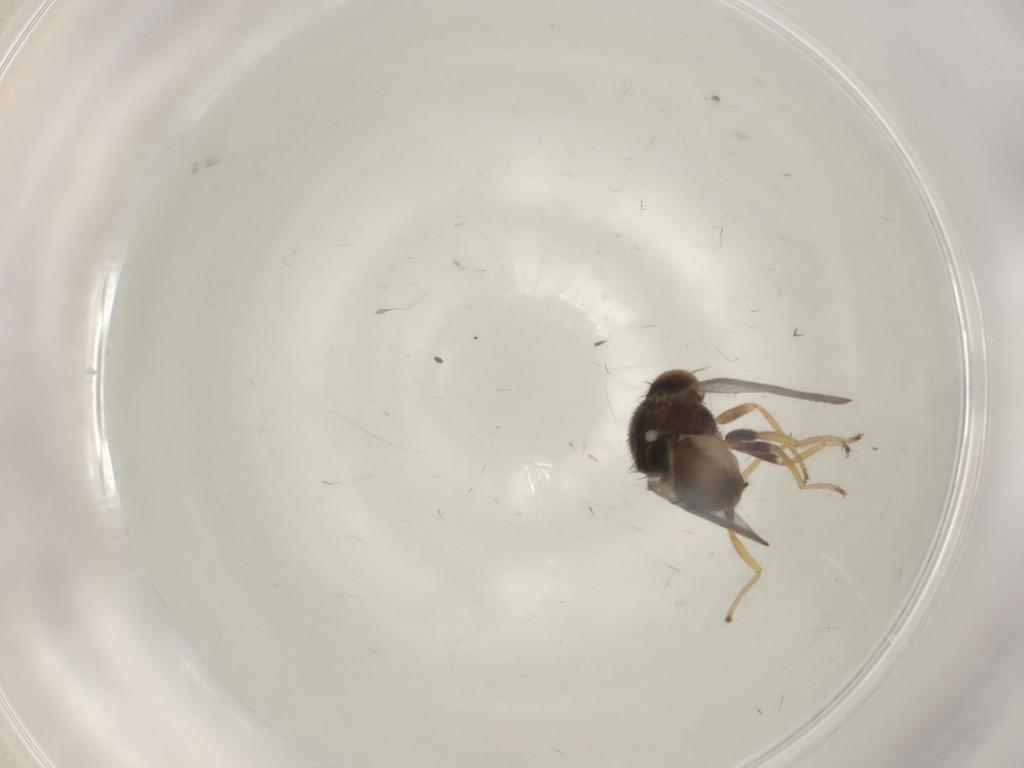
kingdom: Animalia
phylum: Arthropoda
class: Insecta
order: Diptera
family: Chloropidae
